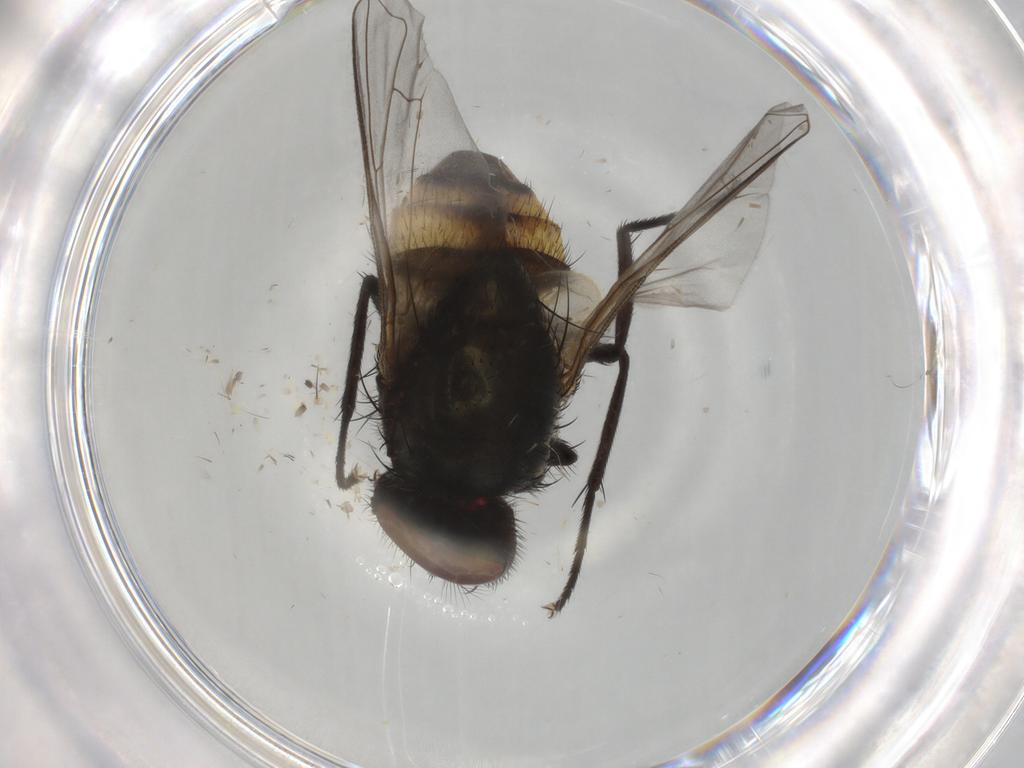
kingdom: Animalia
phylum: Arthropoda
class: Insecta
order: Diptera
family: Muscidae
